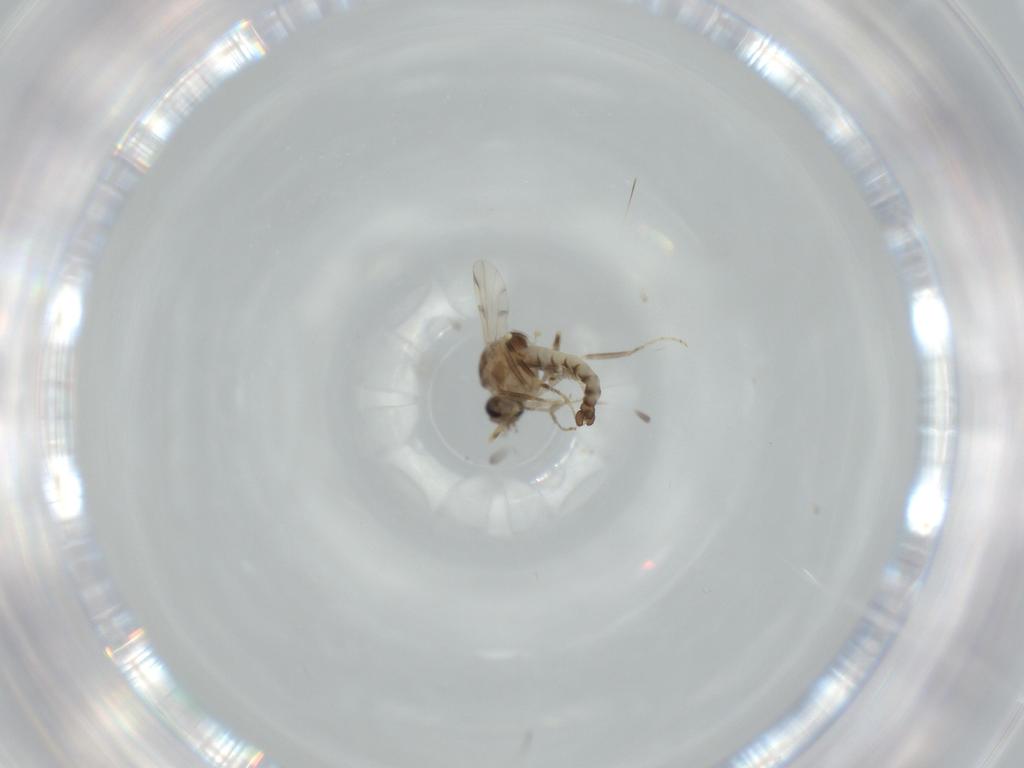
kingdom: Animalia
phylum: Arthropoda
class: Insecta
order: Diptera
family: Ceratopogonidae
